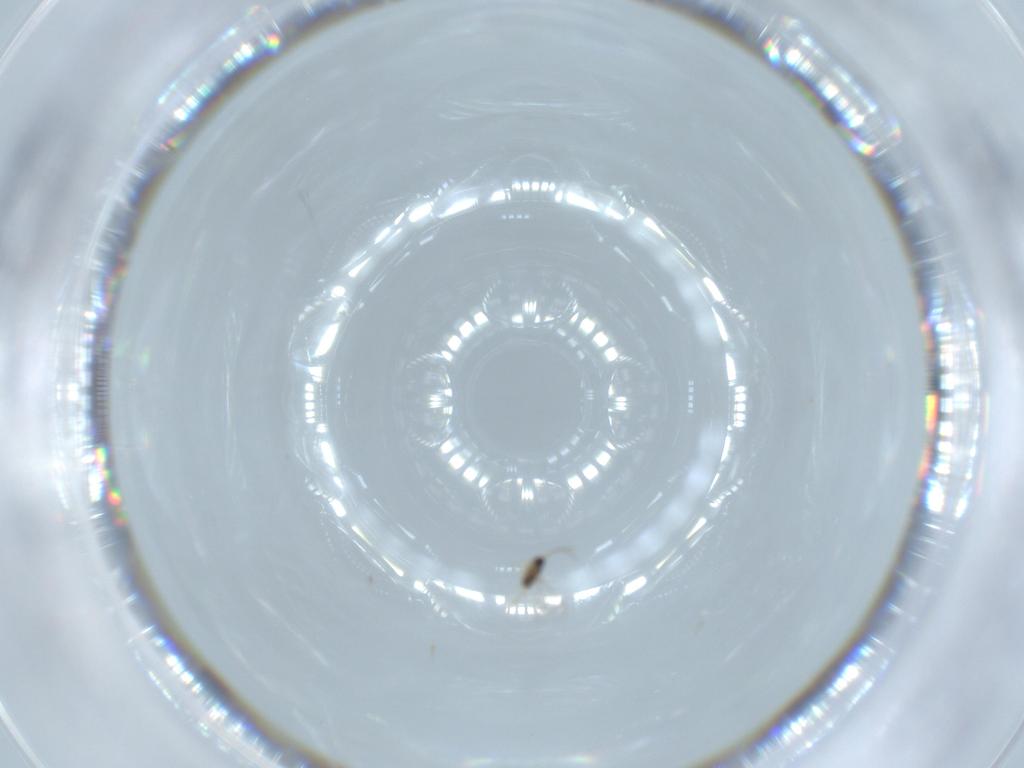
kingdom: Animalia
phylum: Arthropoda
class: Insecta
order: Hymenoptera
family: Mymaridae
